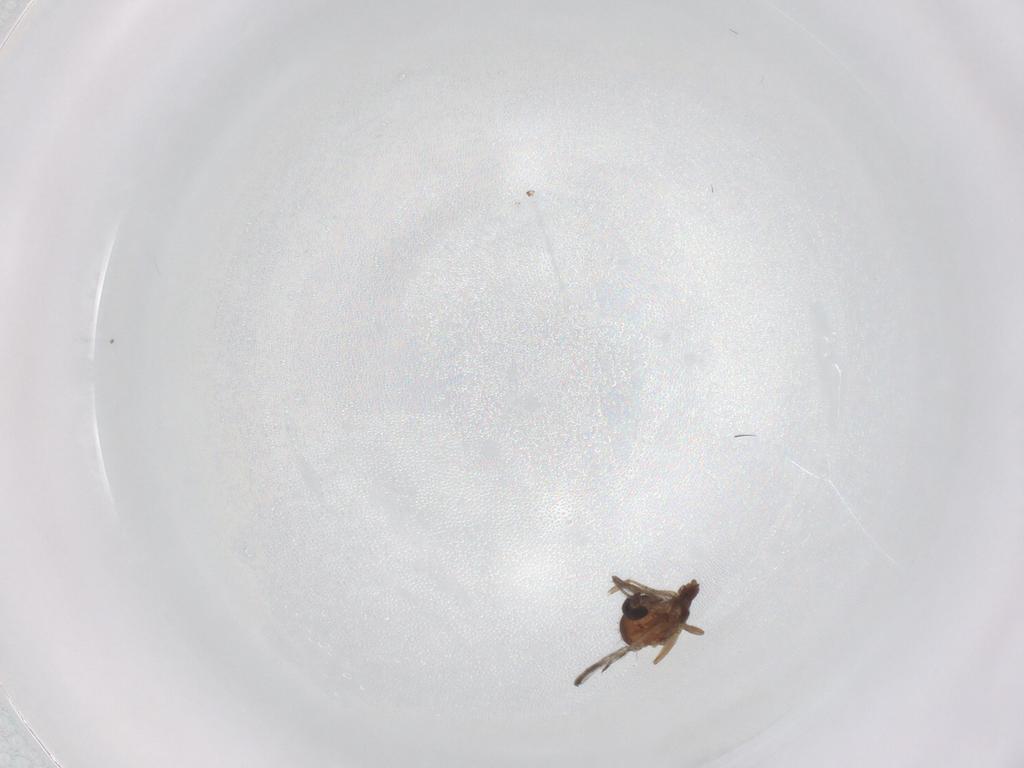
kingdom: Animalia
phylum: Arthropoda
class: Insecta
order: Diptera
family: Chironomidae
